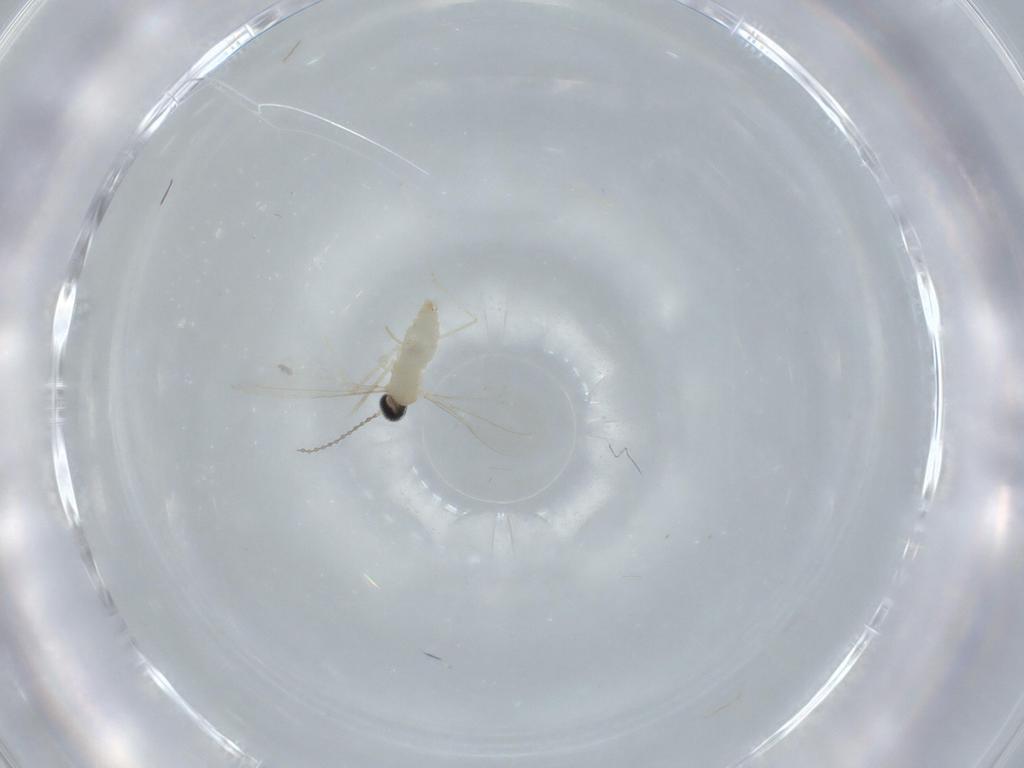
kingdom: Animalia
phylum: Arthropoda
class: Insecta
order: Diptera
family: Cecidomyiidae
